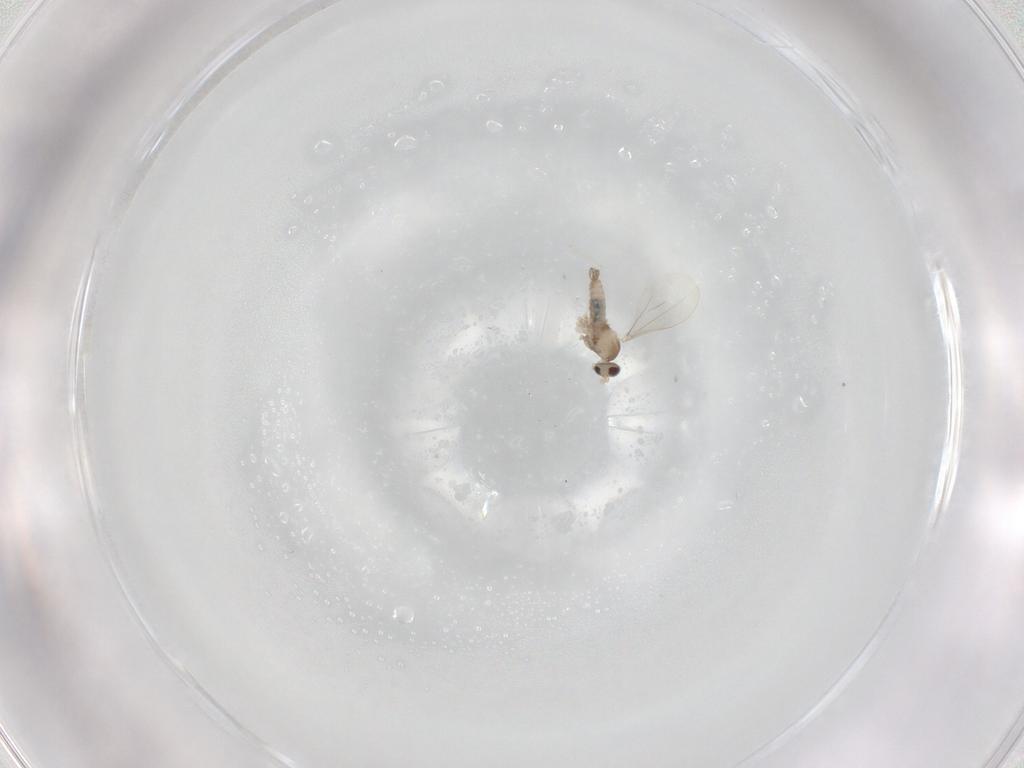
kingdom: Animalia
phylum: Arthropoda
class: Insecta
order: Diptera
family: Cecidomyiidae
